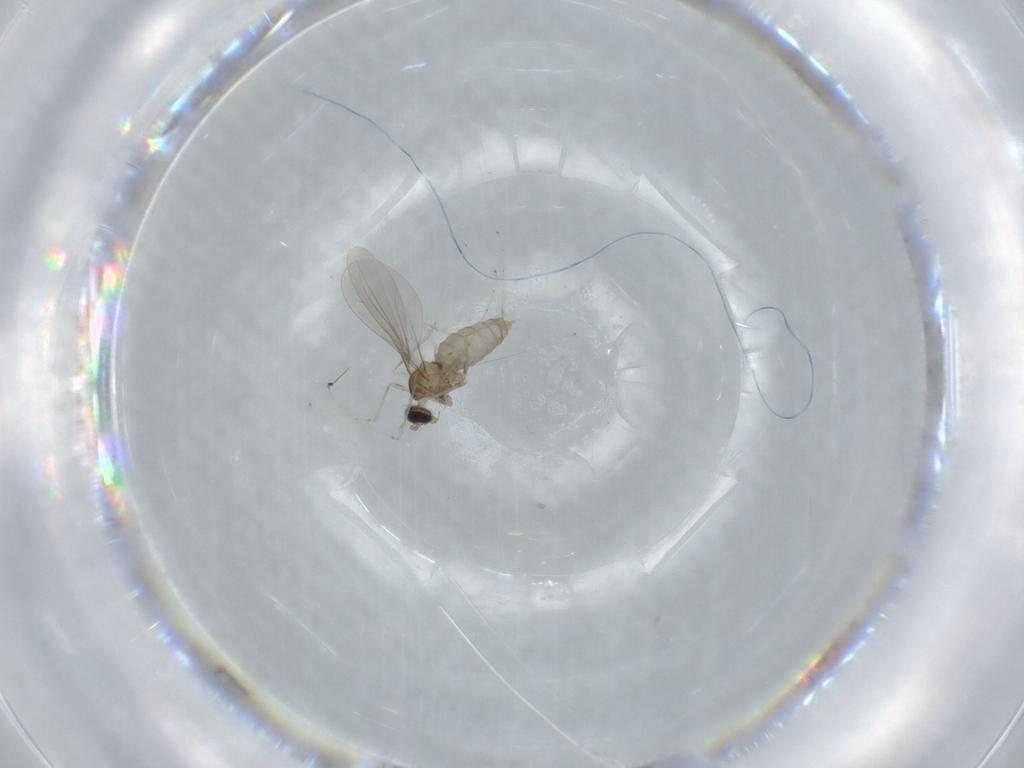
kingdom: Animalia
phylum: Arthropoda
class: Insecta
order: Diptera
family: Cecidomyiidae
